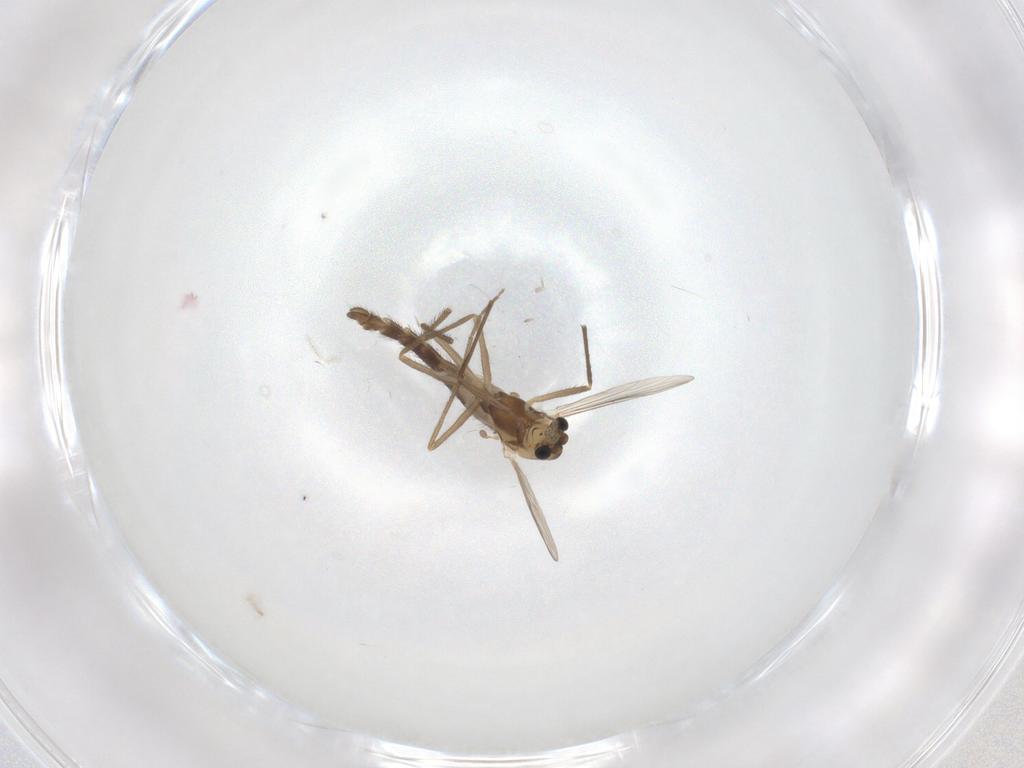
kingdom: Animalia
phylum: Arthropoda
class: Insecta
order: Diptera
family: Chironomidae
